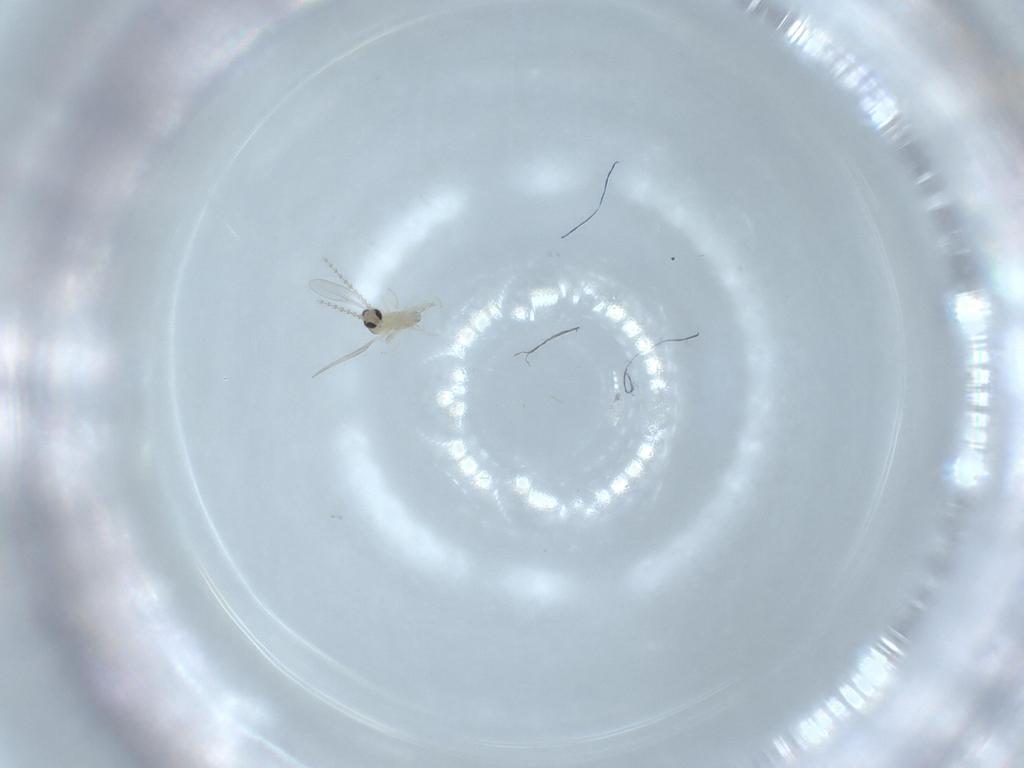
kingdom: Animalia
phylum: Arthropoda
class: Insecta
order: Diptera
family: Cecidomyiidae
